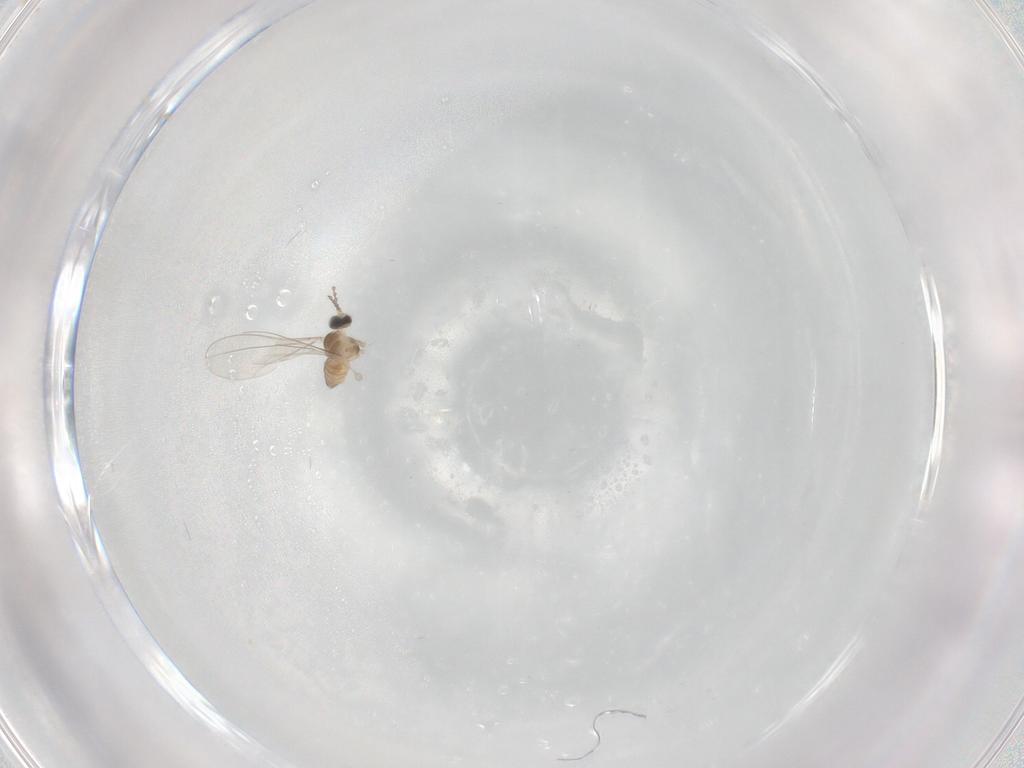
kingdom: Animalia
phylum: Arthropoda
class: Insecta
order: Diptera
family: Cecidomyiidae
